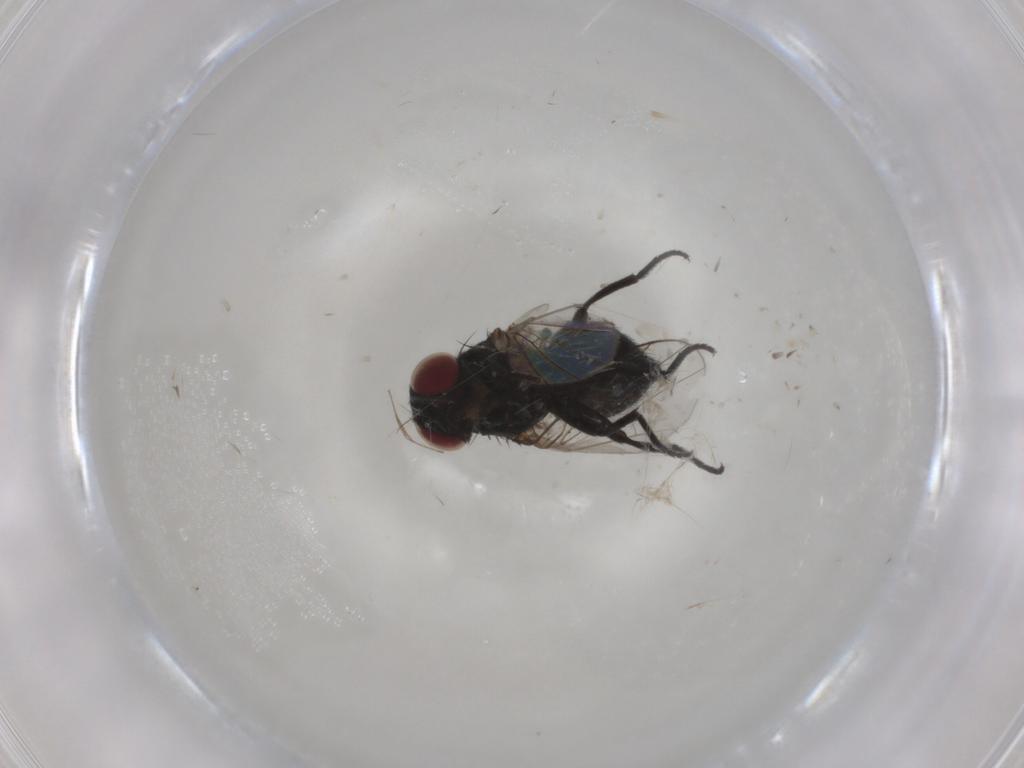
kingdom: Animalia
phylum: Arthropoda
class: Insecta
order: Diptera
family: Agromyzidae
